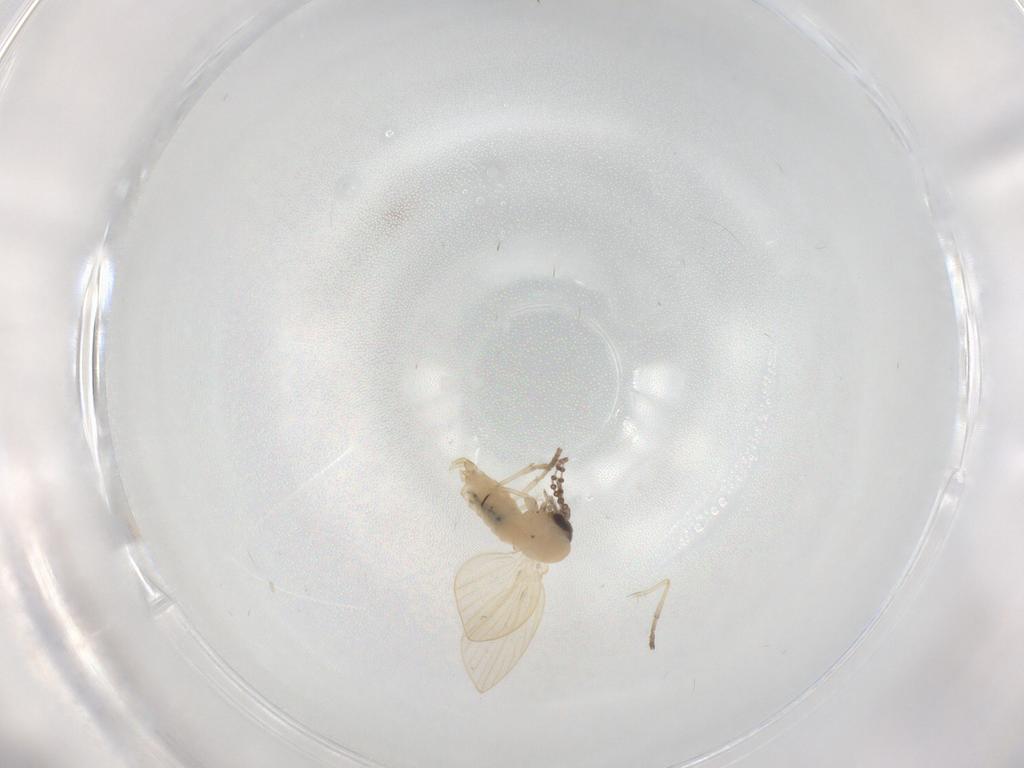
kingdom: Animalia
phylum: Arthropoda
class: Insecta
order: Diptera
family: Psychodidae
